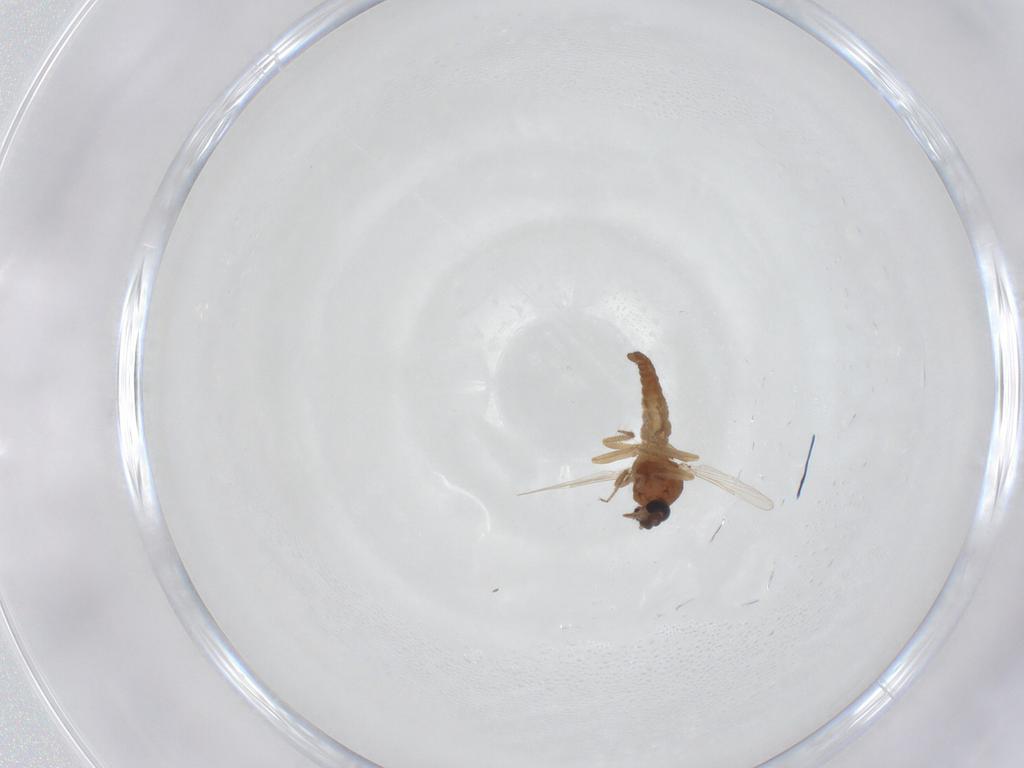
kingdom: Animalia
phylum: Arthropoda
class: Insecta
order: Diptera
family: Ceratopogonidae
